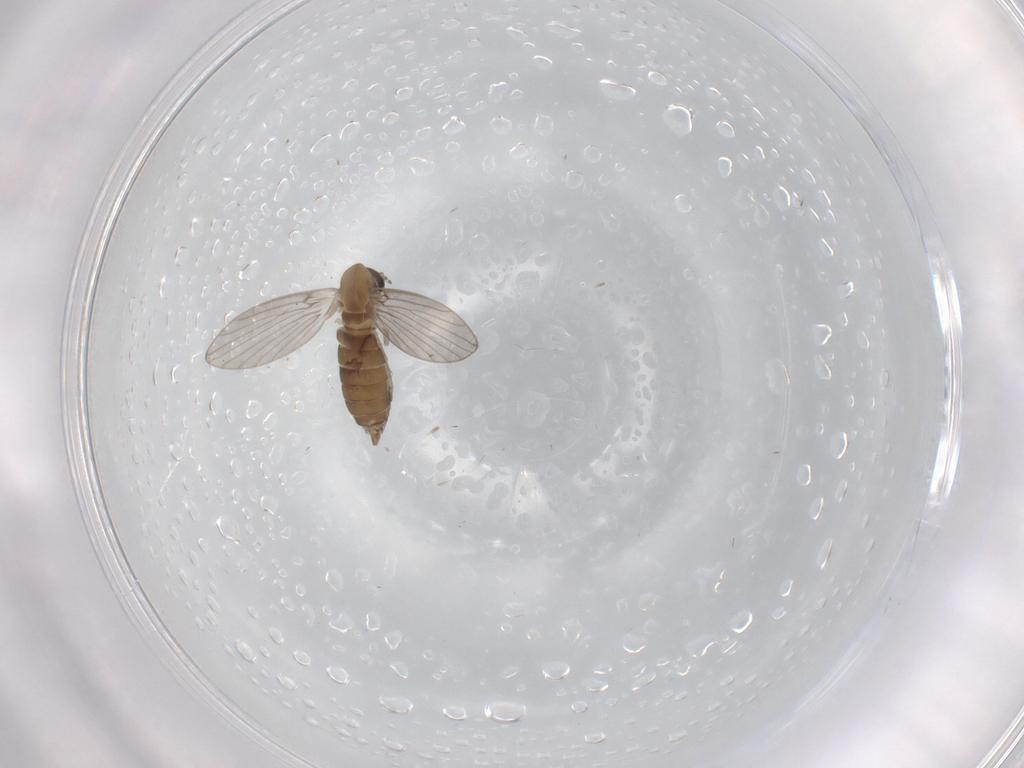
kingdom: Animalia
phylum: Arthropoda
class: Insecta
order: Diptera
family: Psychodidae
